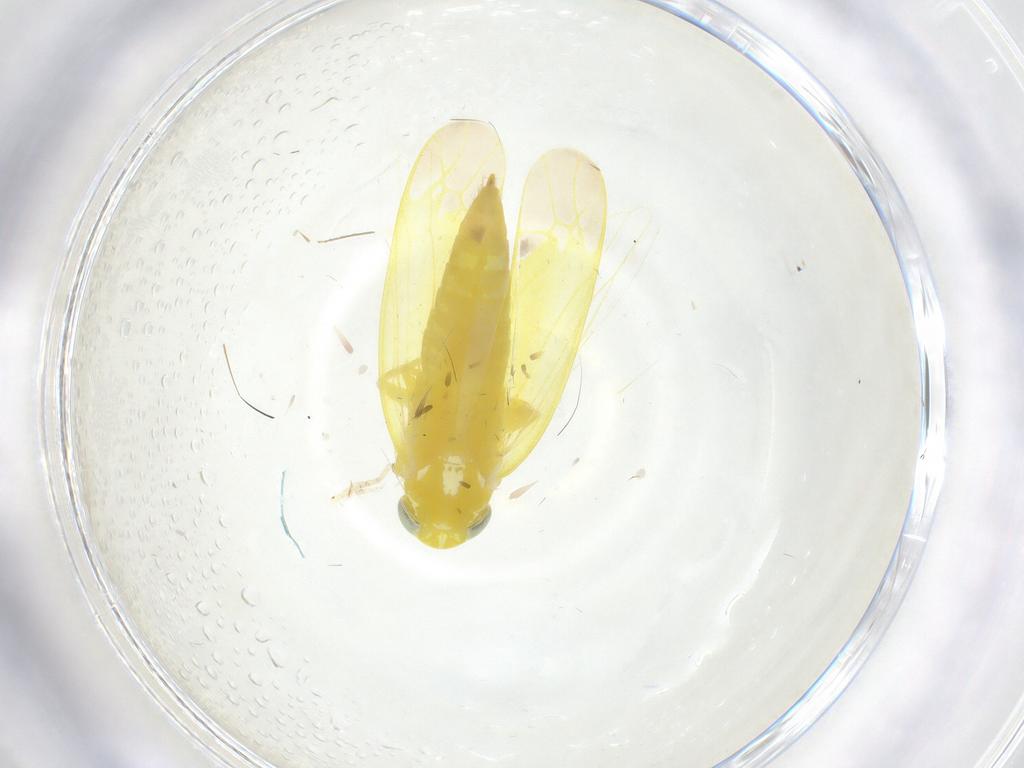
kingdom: Animalia
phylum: Arthropoda
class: Insecta
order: Hemiptera
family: Cicadellidae
